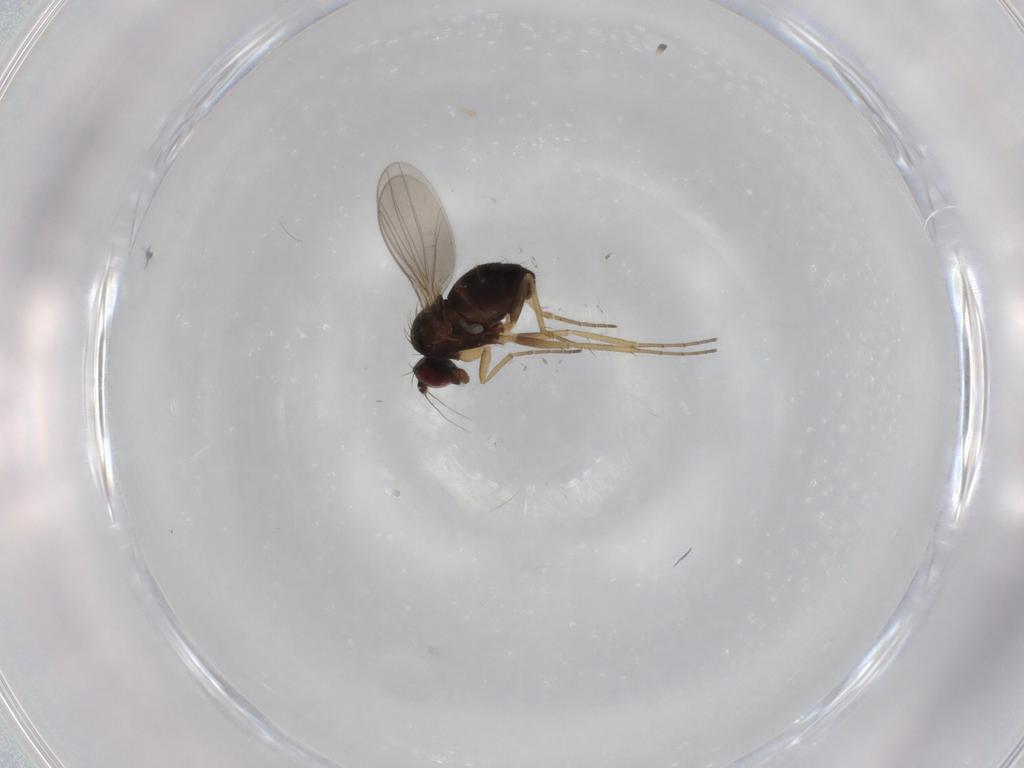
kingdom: Animalia
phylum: Arthropoda
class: Insecta
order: Diptera
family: Dolichopodidae
